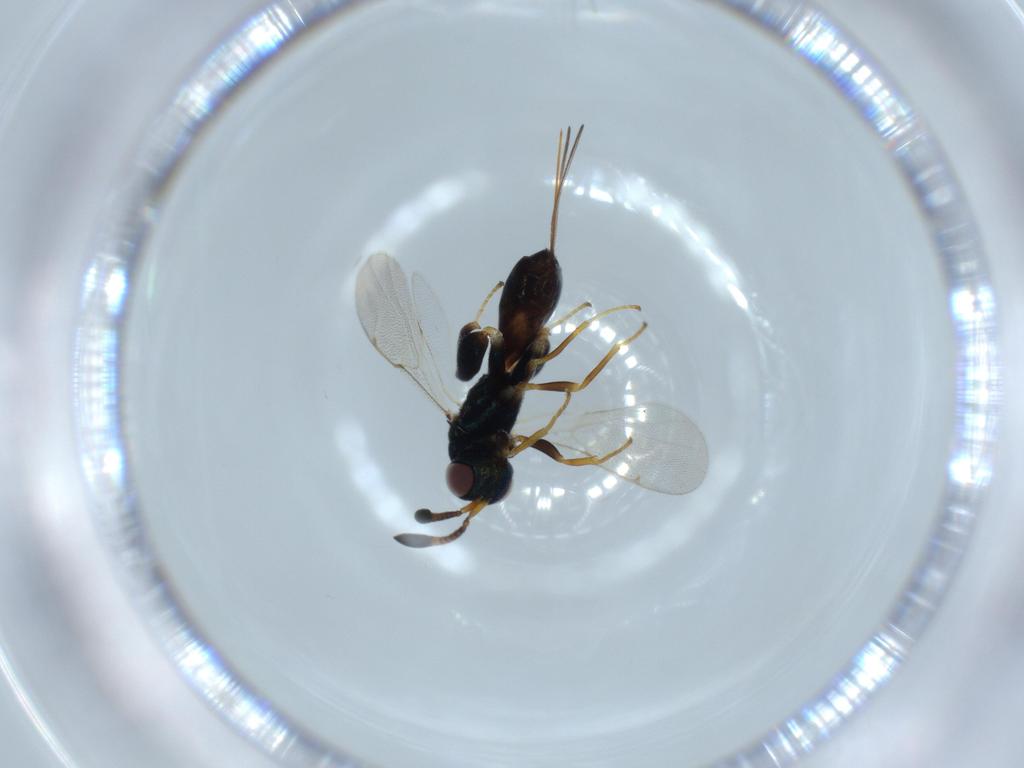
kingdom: Animalia
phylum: Arthropoda
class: Insecta
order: Hymenoptera
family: Torymidae
